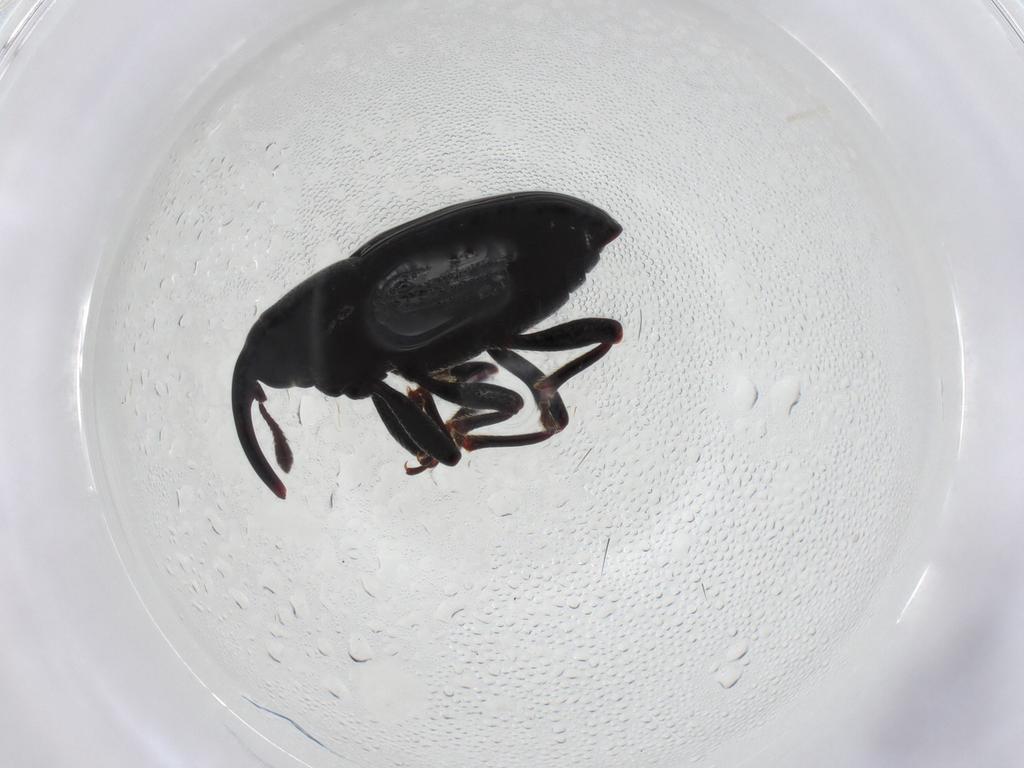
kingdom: Animalia
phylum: Arthropoda
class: Insecta
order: Coleoptera
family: Curculionidae
